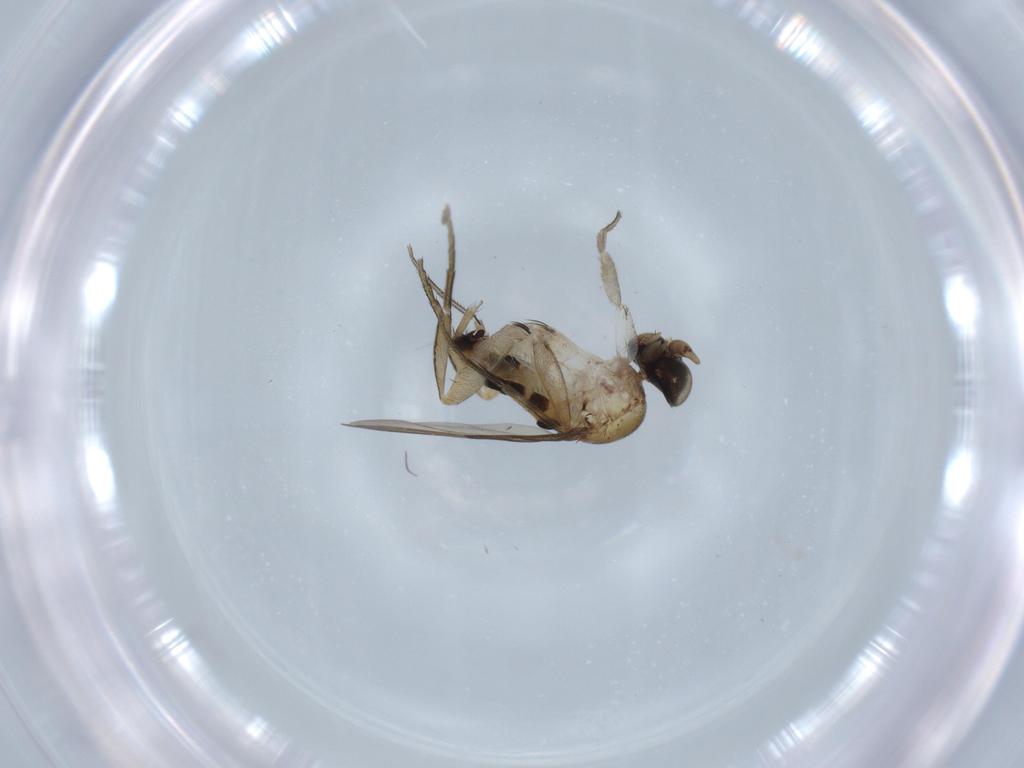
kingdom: Animalia
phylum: Arthropoda
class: Insecta
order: Diptera
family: Phoridae
